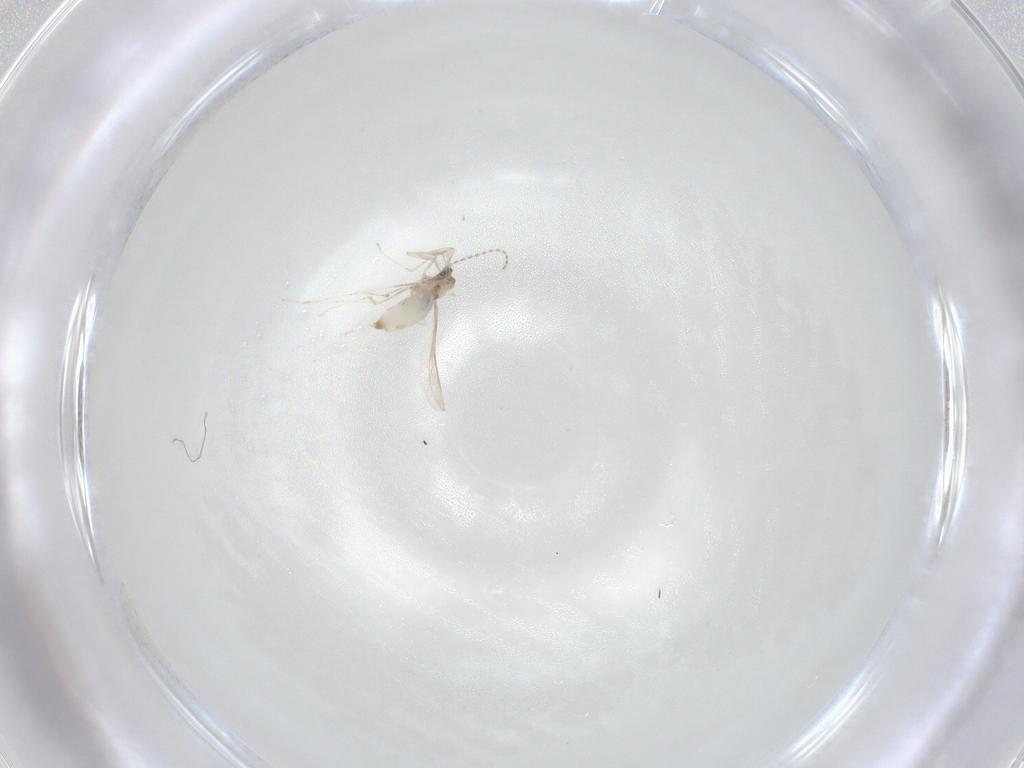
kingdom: Animalia
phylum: Arthropoda
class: Insecta
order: Diptera
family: Cecidomyiidae
